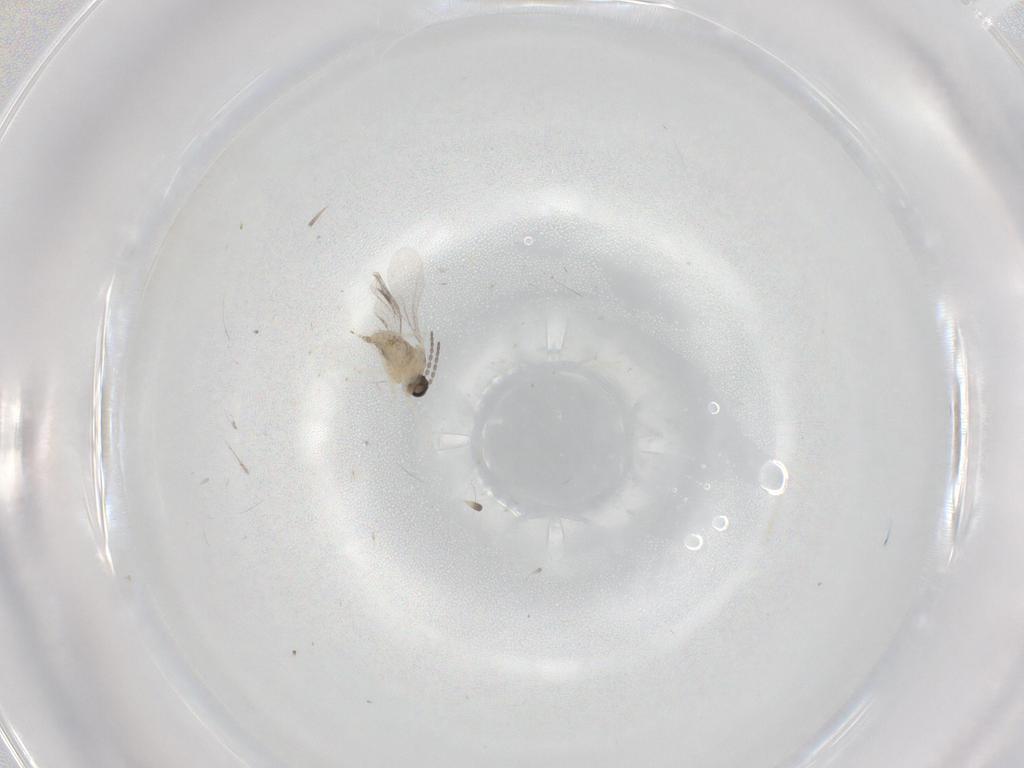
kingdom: Animalia
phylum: Arthropoda
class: Insecta
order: Diptera
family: Cecidomyiidae
